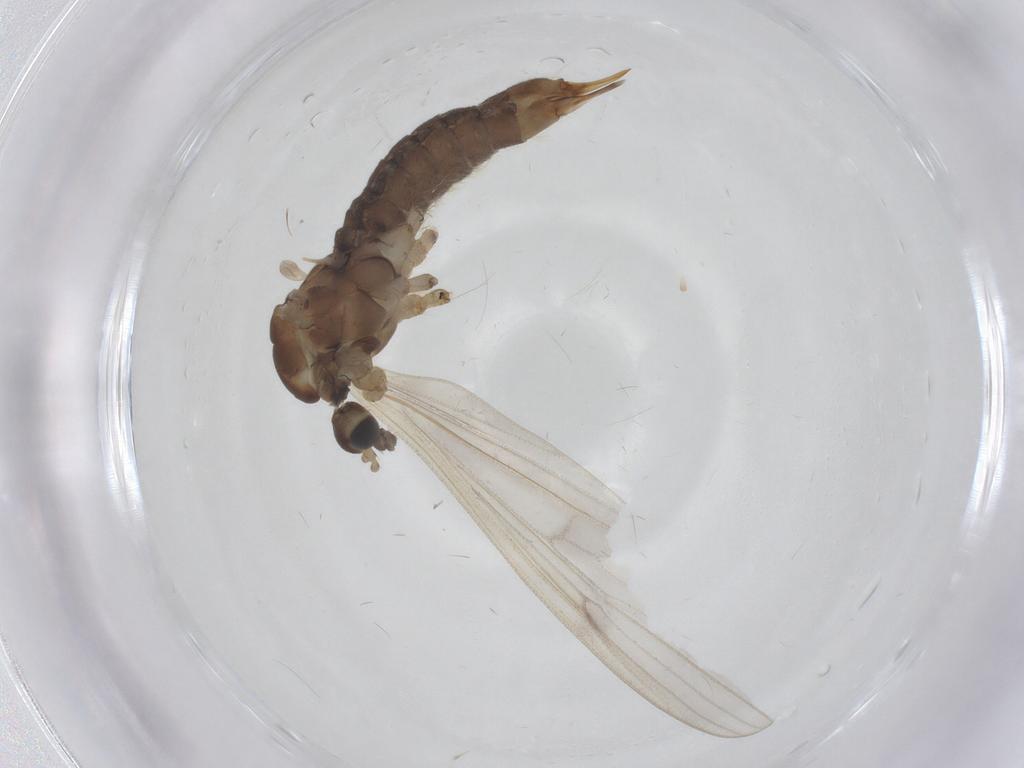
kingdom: Animalia
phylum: Arthropoda
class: Insecta
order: Diptera
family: Limoniidae
